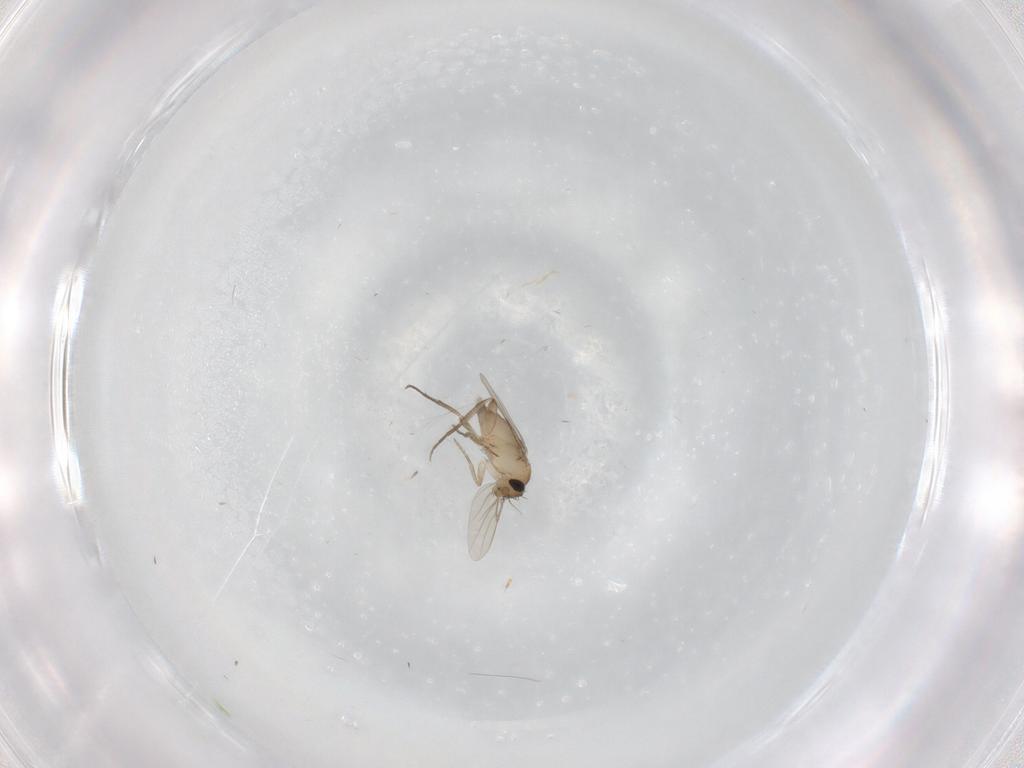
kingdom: Animalia
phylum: Arthropoda
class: Insecta
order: Diptera
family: Phoridae
